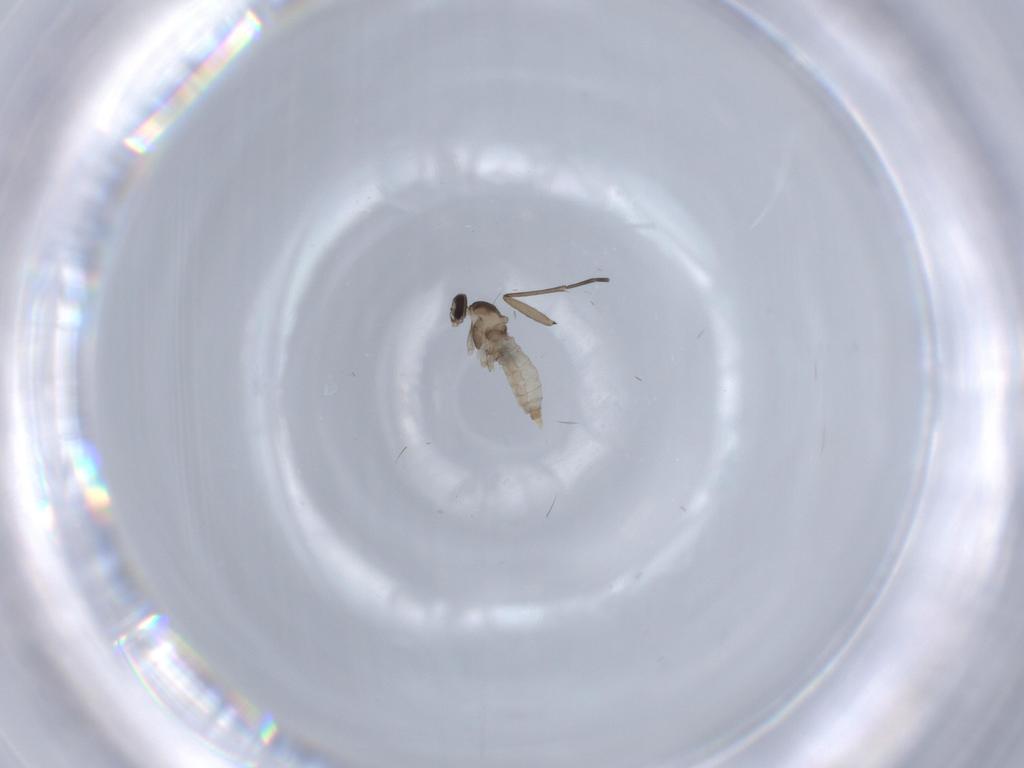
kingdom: Animalia
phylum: Arthropoda
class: Insecta
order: Diptera
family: Cecidomyiidae
